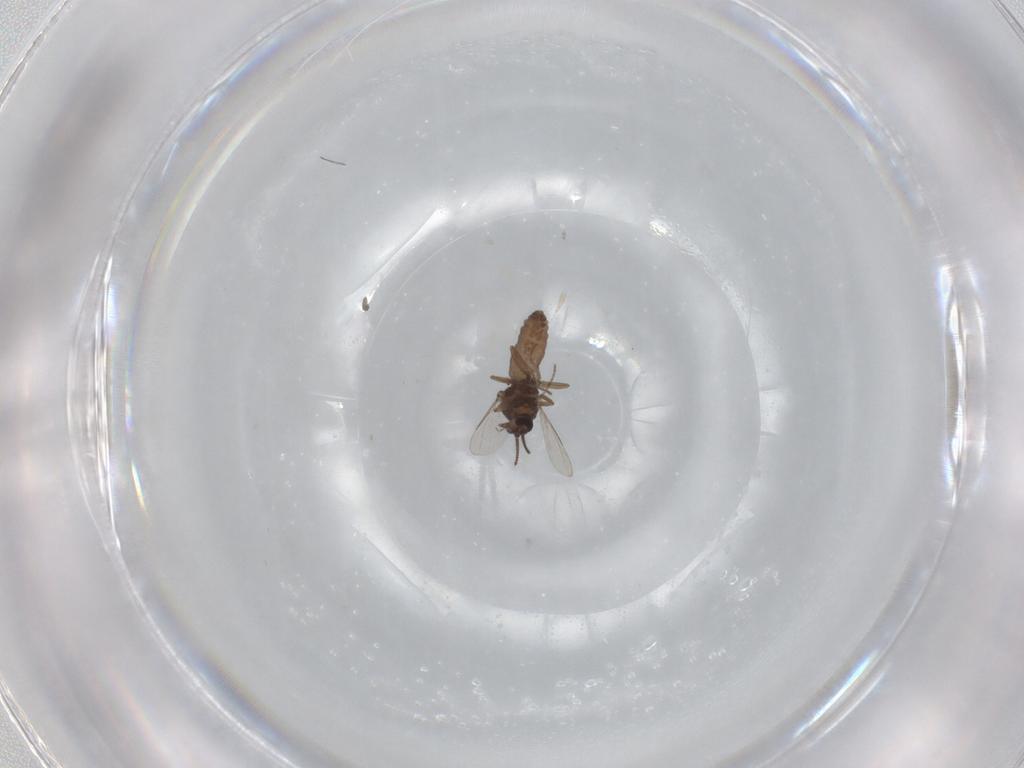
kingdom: Animalia
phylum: Arthropoda
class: Insecta
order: Diptera
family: Ceratopogonidae
